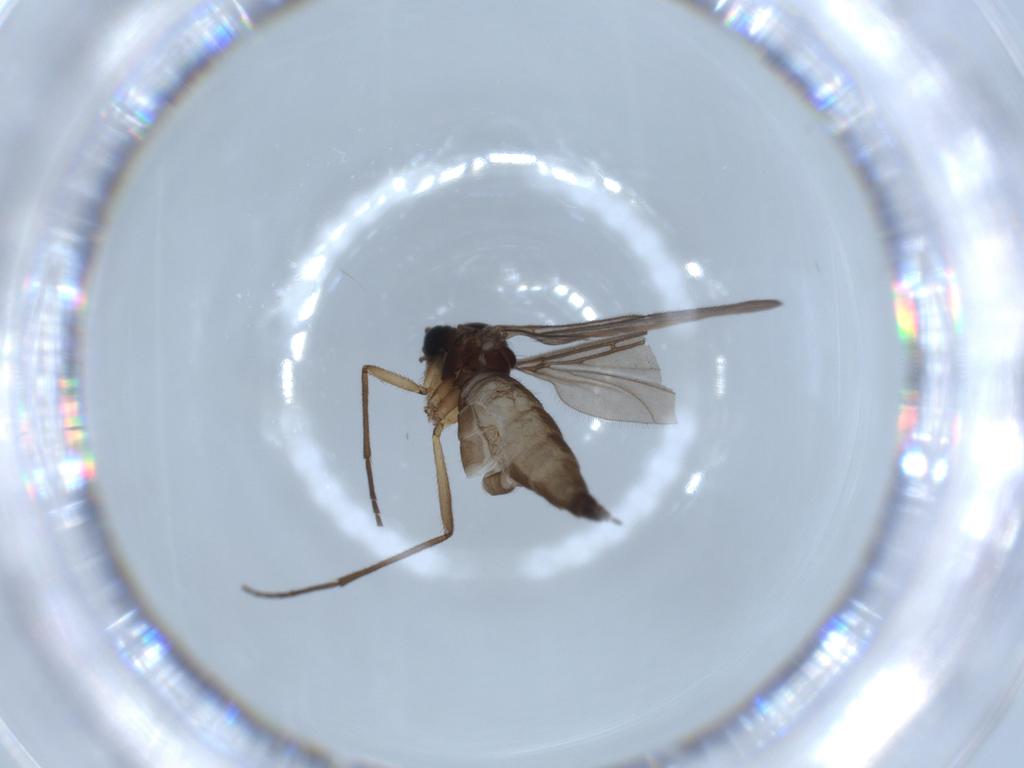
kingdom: Animalia
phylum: Arthropoda
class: Insecta
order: Diptera
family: Sciaridae
